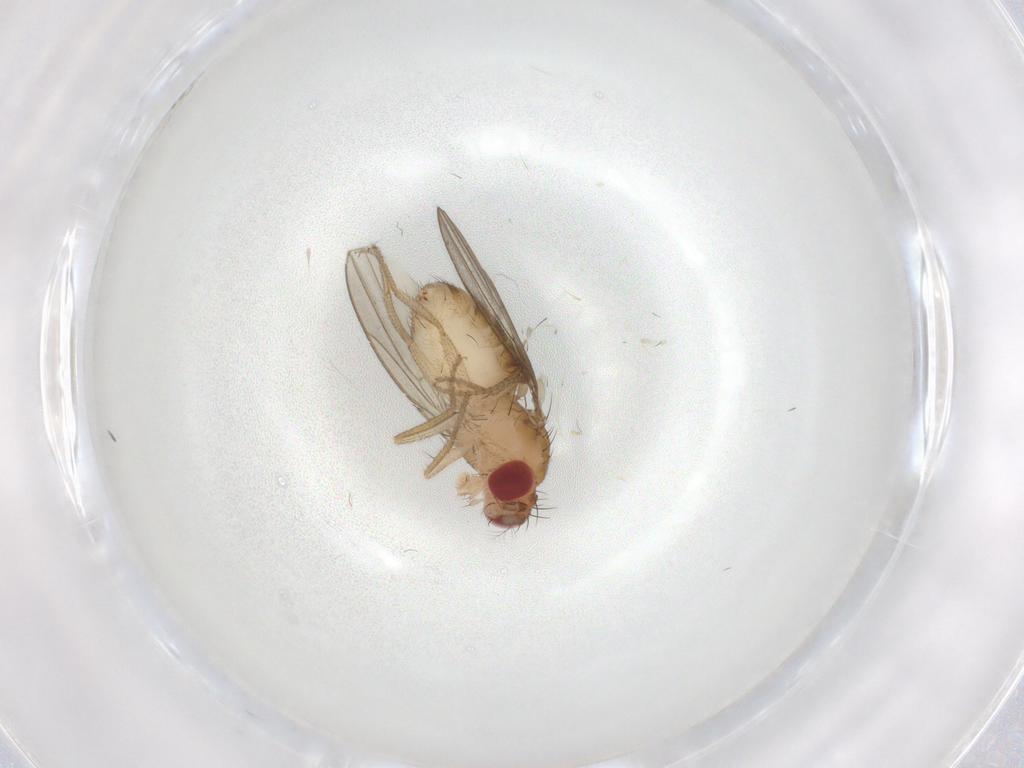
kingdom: Animalia
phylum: Arthropoda
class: Insecta
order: Diptera
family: Drosophilidae
